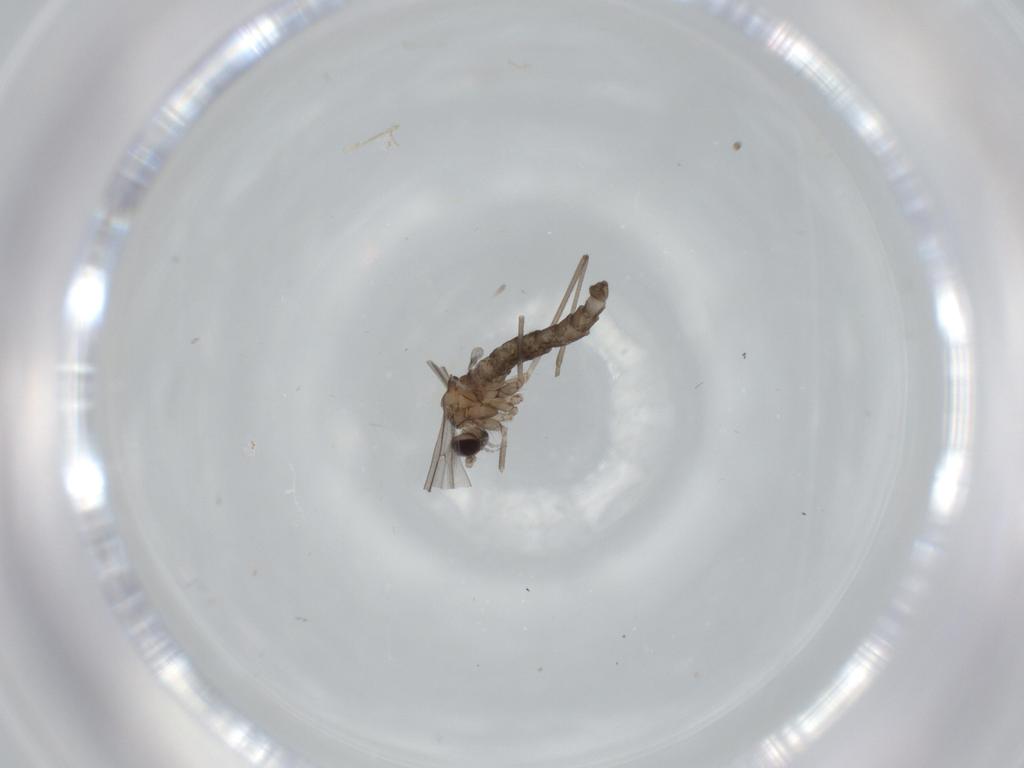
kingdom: Animalia
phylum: Arthropoda
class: Insecta
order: Diptera
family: Cecidomyiidae
